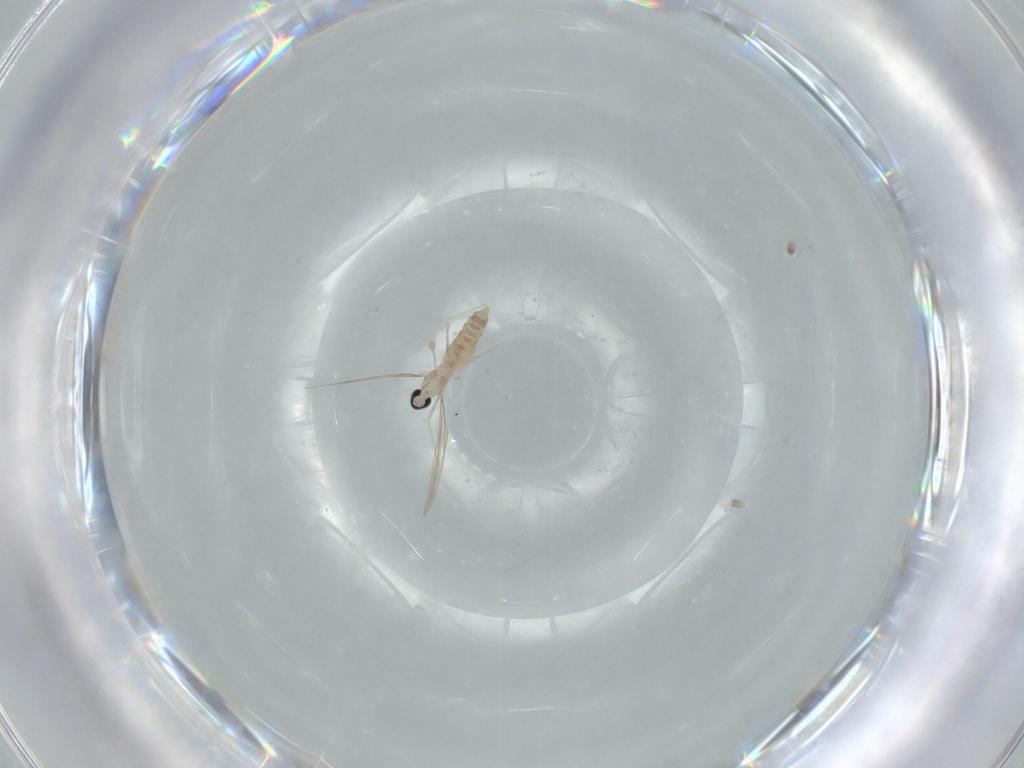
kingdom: Animalia
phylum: Arthropoda
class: Insecta
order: Diptera
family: Cecidomyiidae
